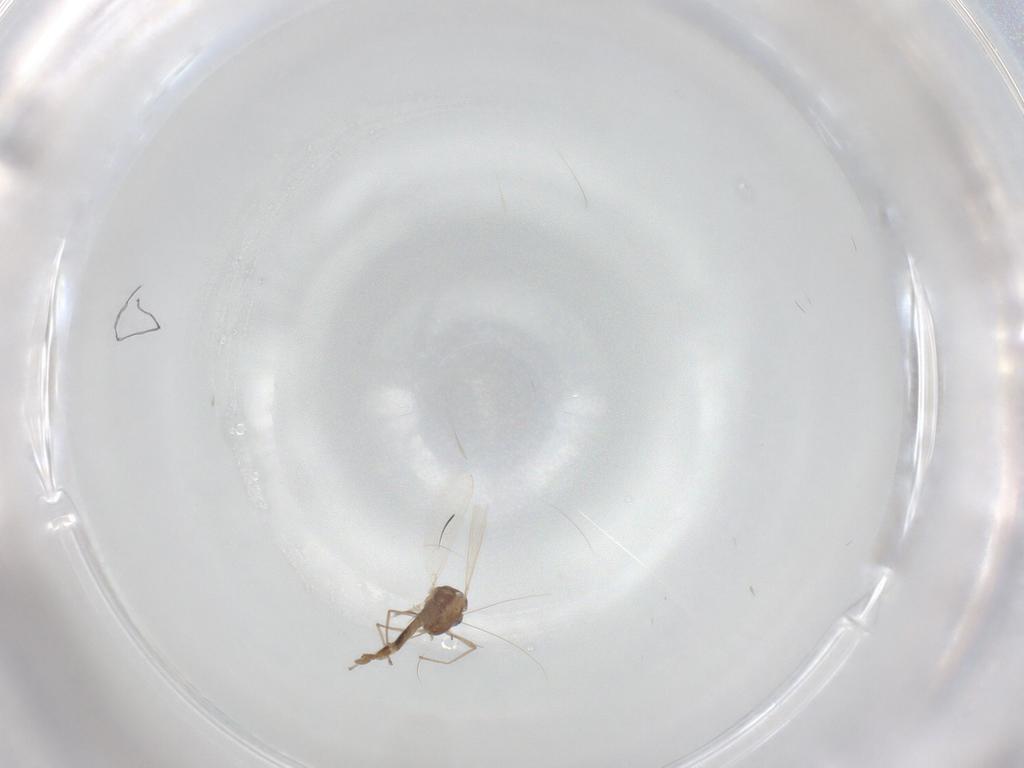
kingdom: Animalia
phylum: Arthropoda
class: Insecta
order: Diptera
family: Chironomidae
